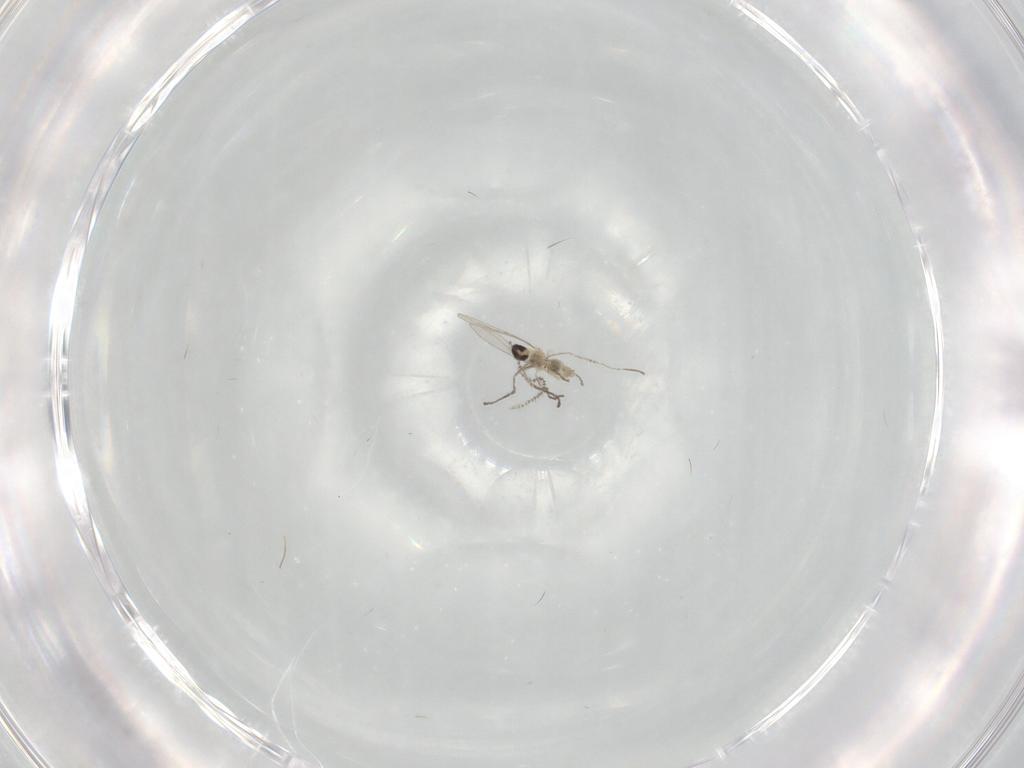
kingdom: Animalia
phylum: Arthropoda
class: Insecta
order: Diptera
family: Cecidomyiidae
